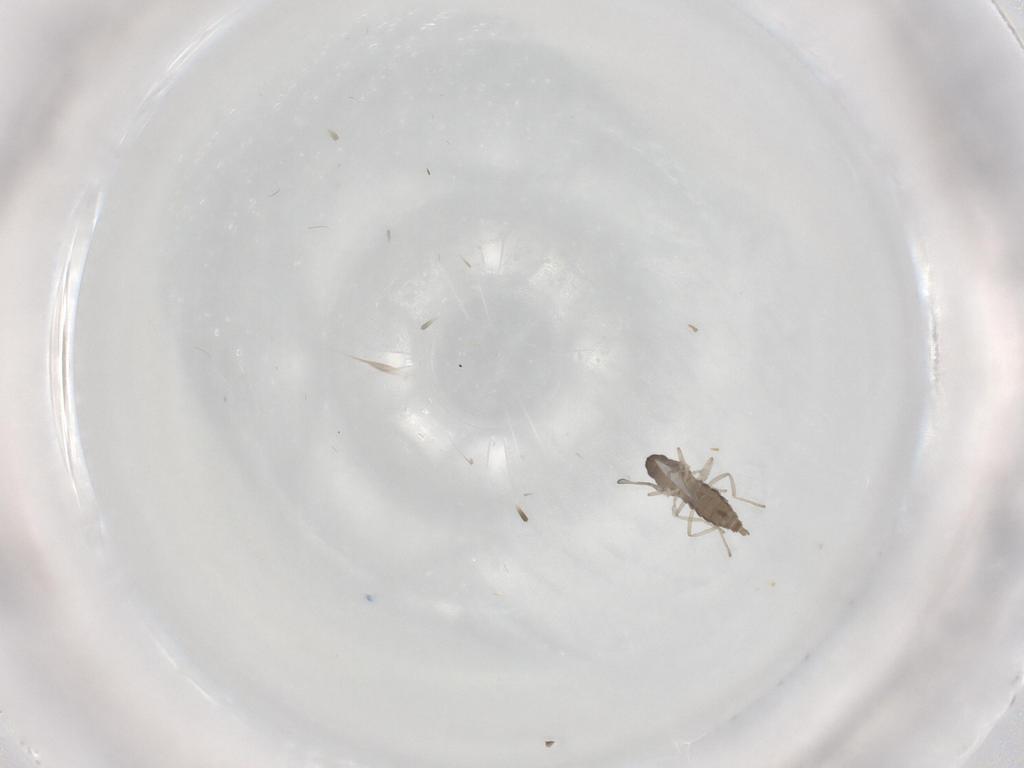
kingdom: Animalia
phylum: Arthropoda
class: Insecta
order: Diptera
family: Cecidomyiidae
